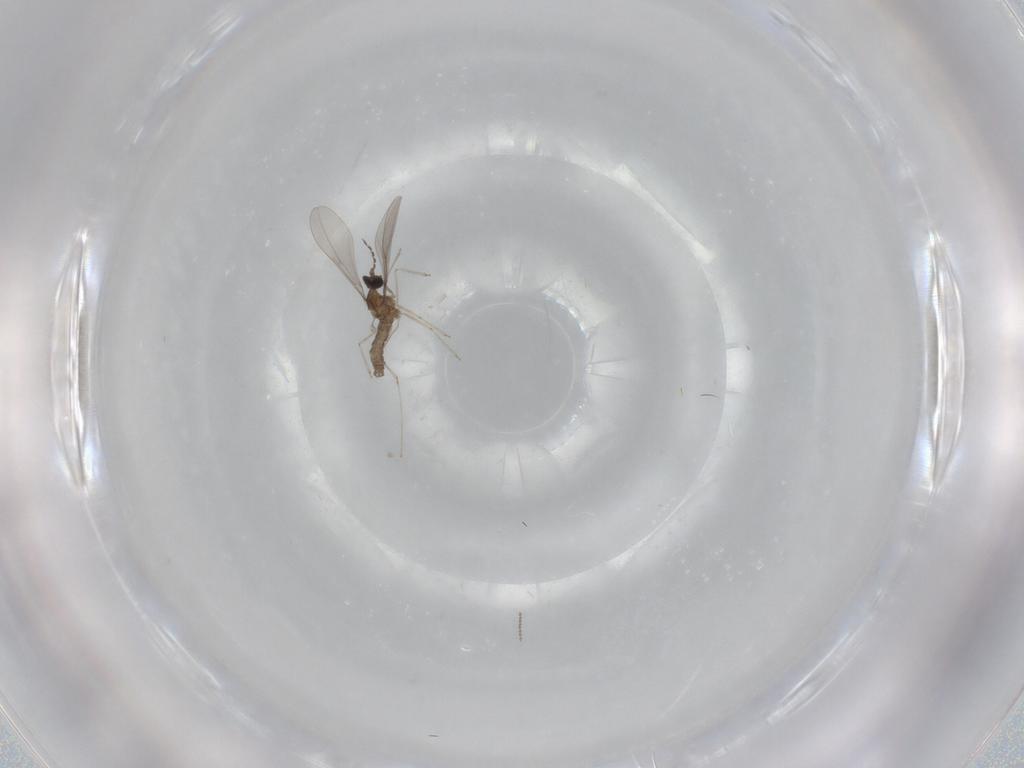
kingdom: Animalia
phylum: Arthropoda
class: Insecta
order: Diptera
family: Cecidomyiidae
